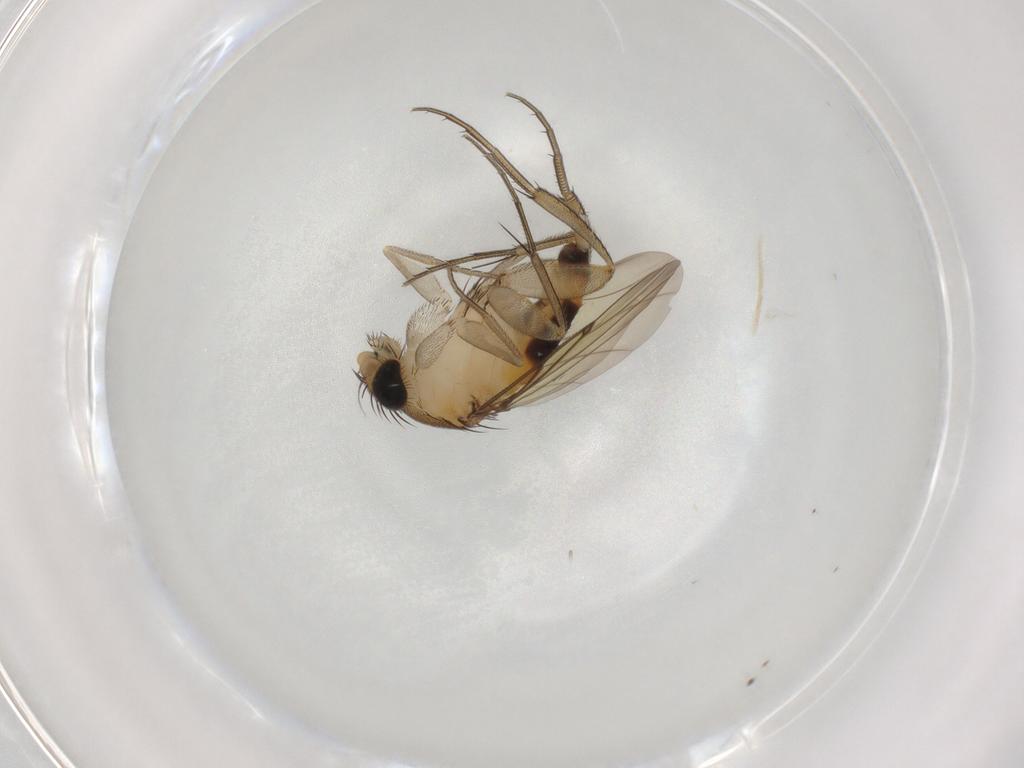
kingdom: Animalia
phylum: Arthropoda
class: Insecta
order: Diptera
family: Phoridae
